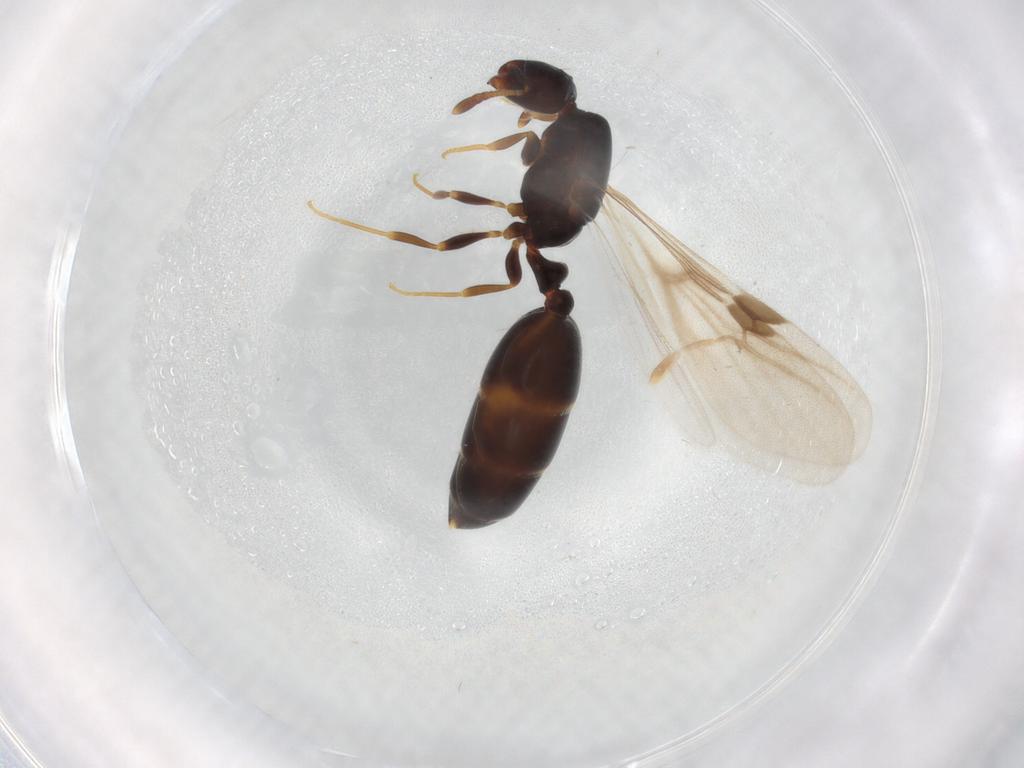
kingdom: Animalia
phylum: Arthropoda
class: Insecta
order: Hymenoptera
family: Formicidae
